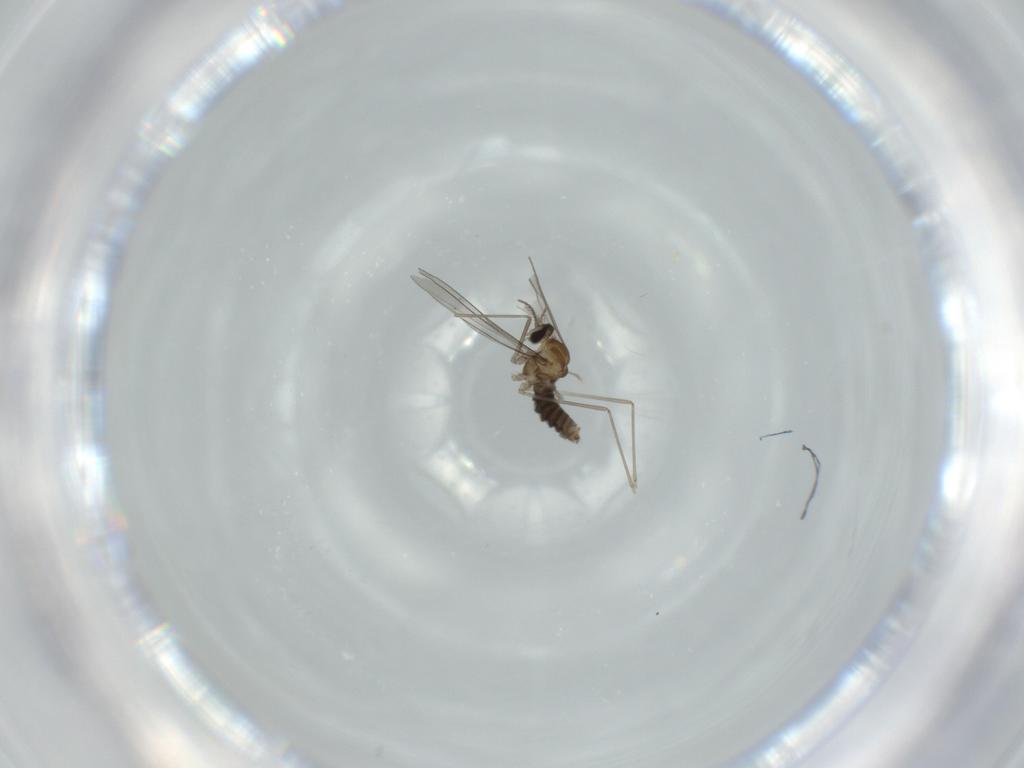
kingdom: Animalia
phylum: Arthropoda
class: Insecta
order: Diptera
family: Cecidomyiidae
